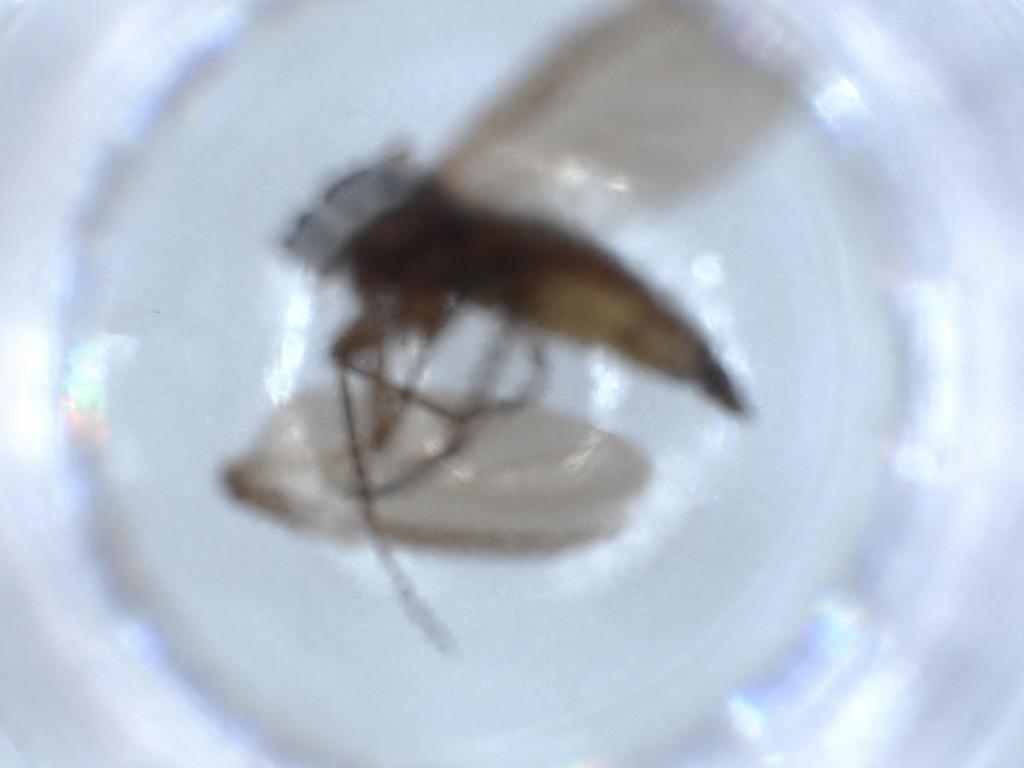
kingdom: Animalia
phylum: Arthropoda
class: Insecta
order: Diptera
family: Sciaridae
